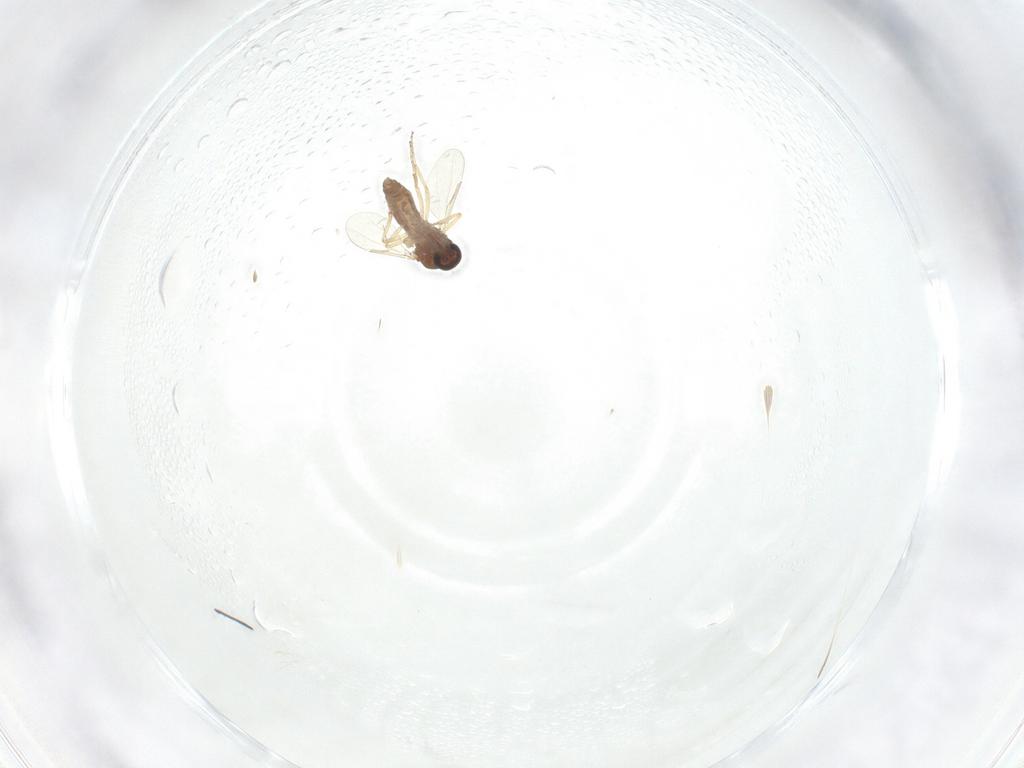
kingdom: Animalia
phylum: Arthropoda
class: Insecta
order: Diptera
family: Ceratopogonidae
